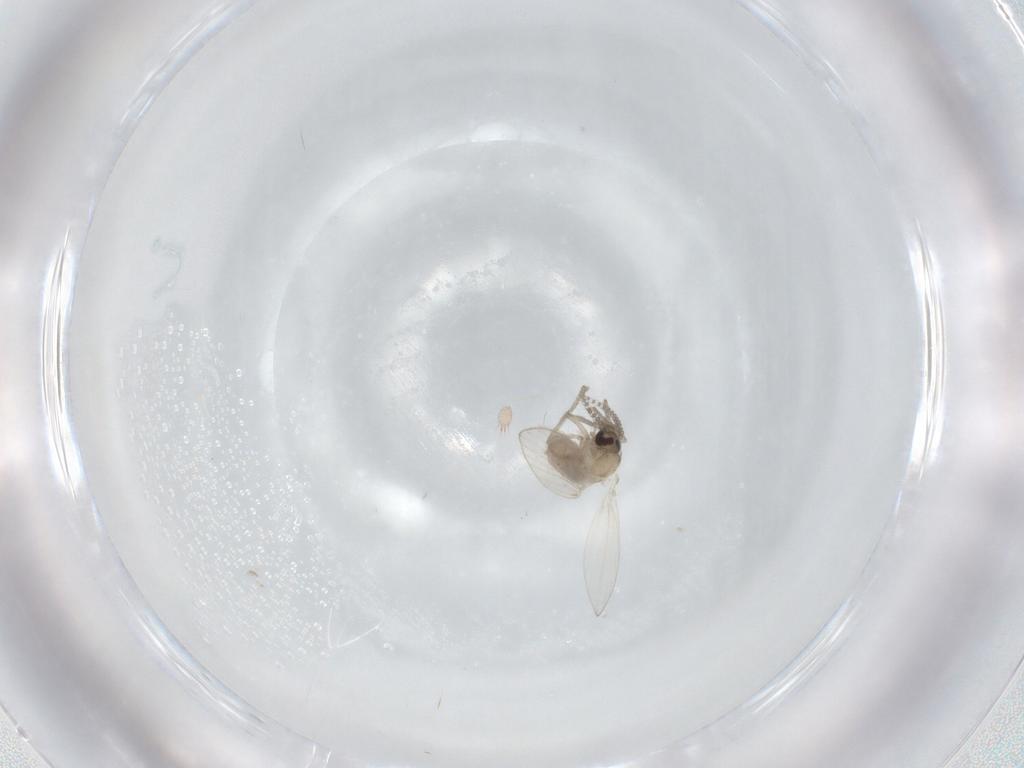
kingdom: Animalia
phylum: Arthropoda
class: Insecta
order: Diptera
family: Psychodidae
